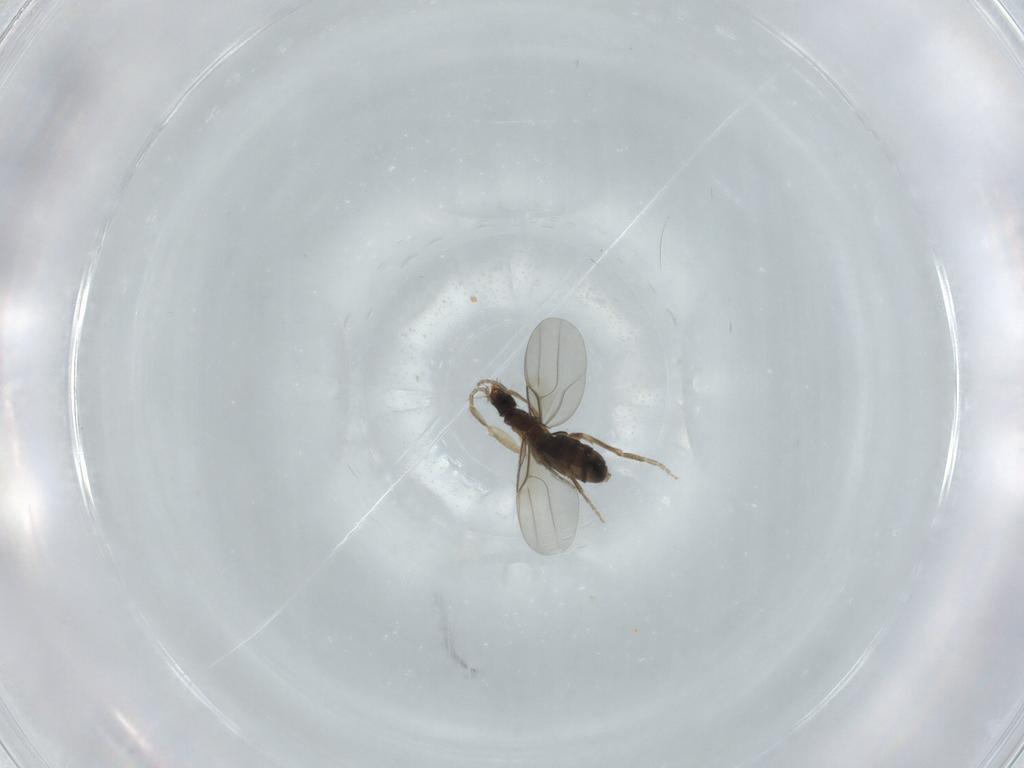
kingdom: Animalia
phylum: Arthropoda
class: Insecta
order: Diptera
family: Phoridae
